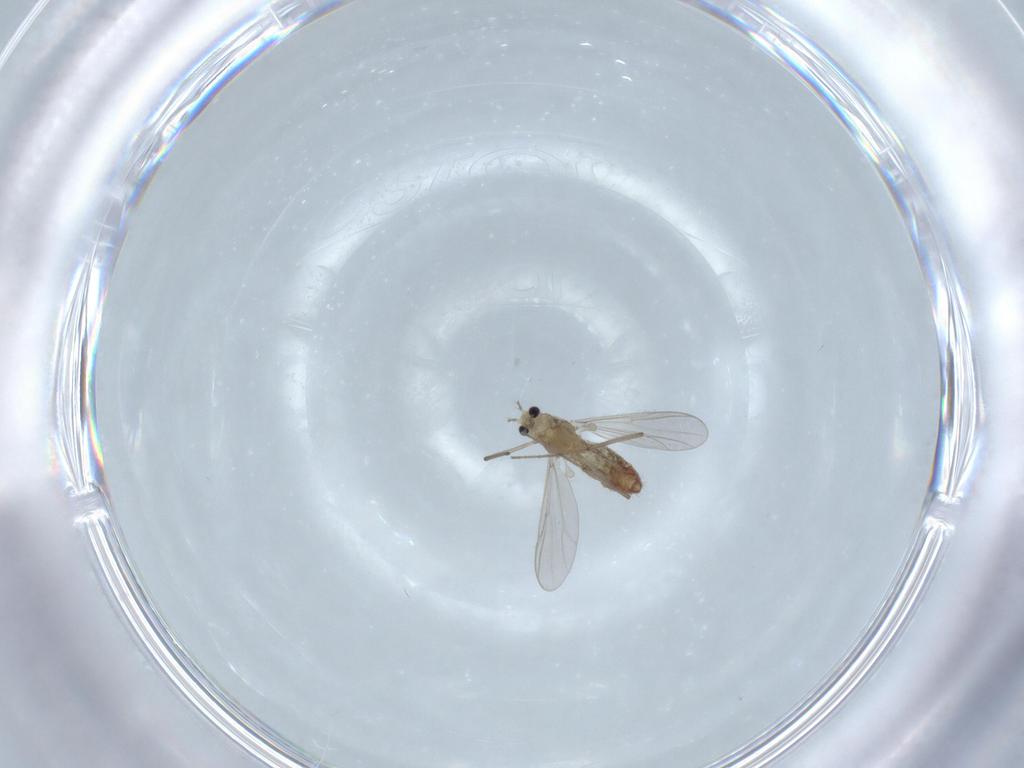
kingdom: Animalia
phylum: Arthropoda
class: Insecta
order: Diptera
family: Chironomidae
